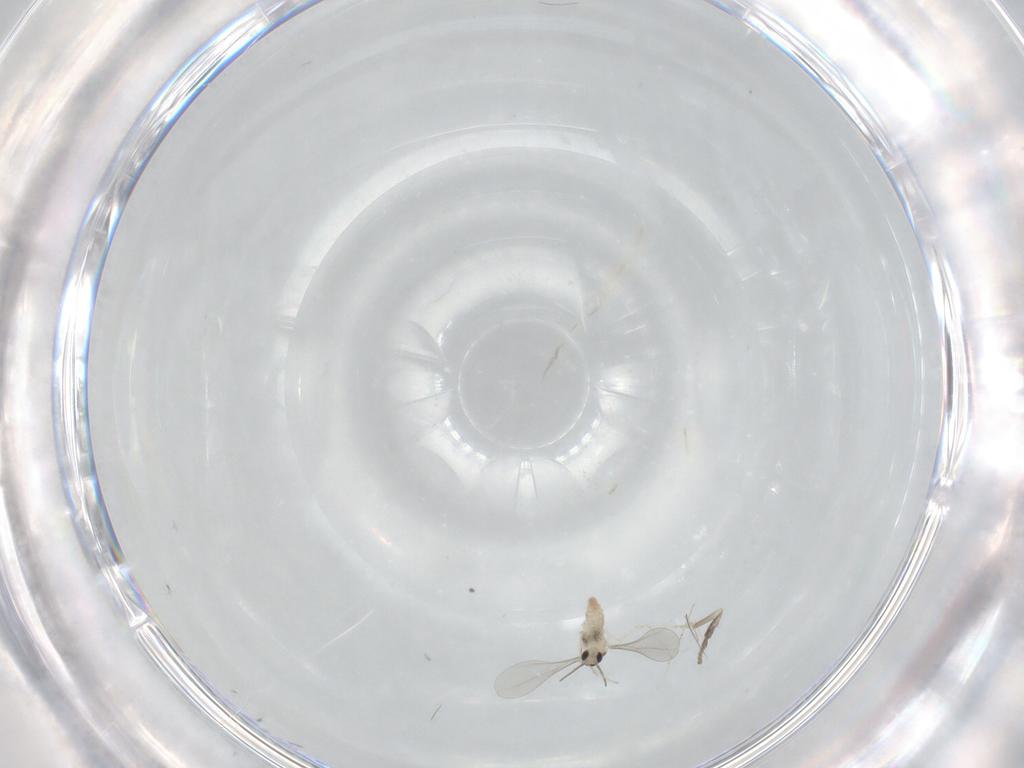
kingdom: Animalia
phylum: Arthropoda
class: Insecta
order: Diptera
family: Cecidomyiidae
